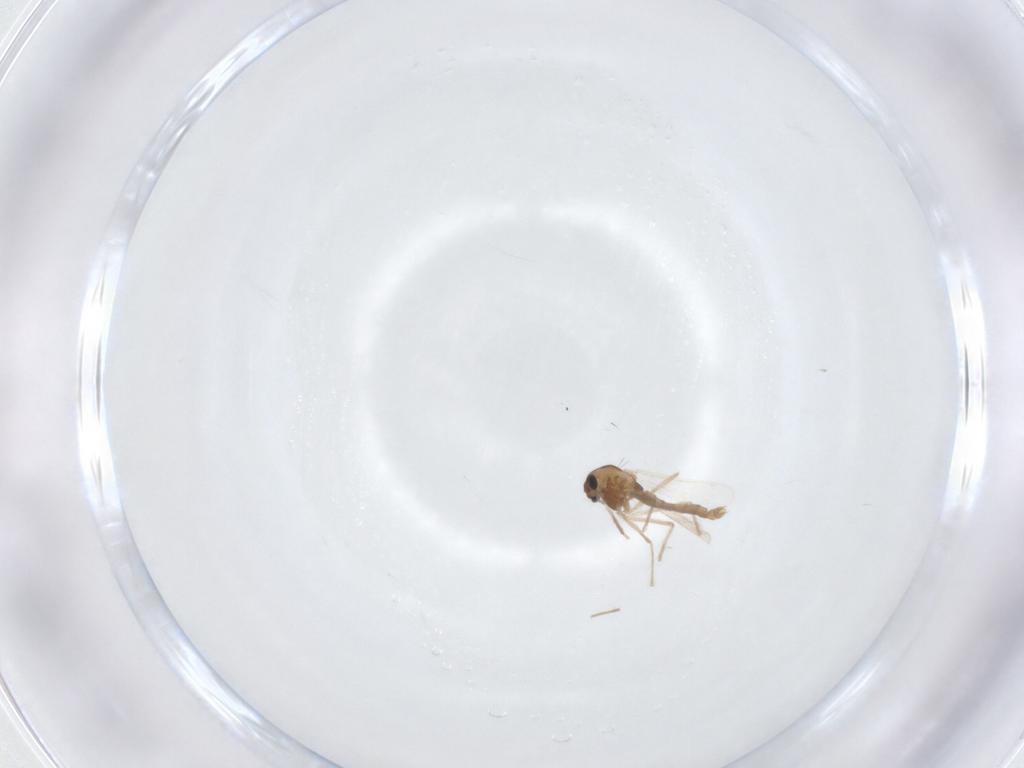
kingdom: Animalia
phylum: Arthropoda
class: Insecta
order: Diptera
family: Chironomidae
